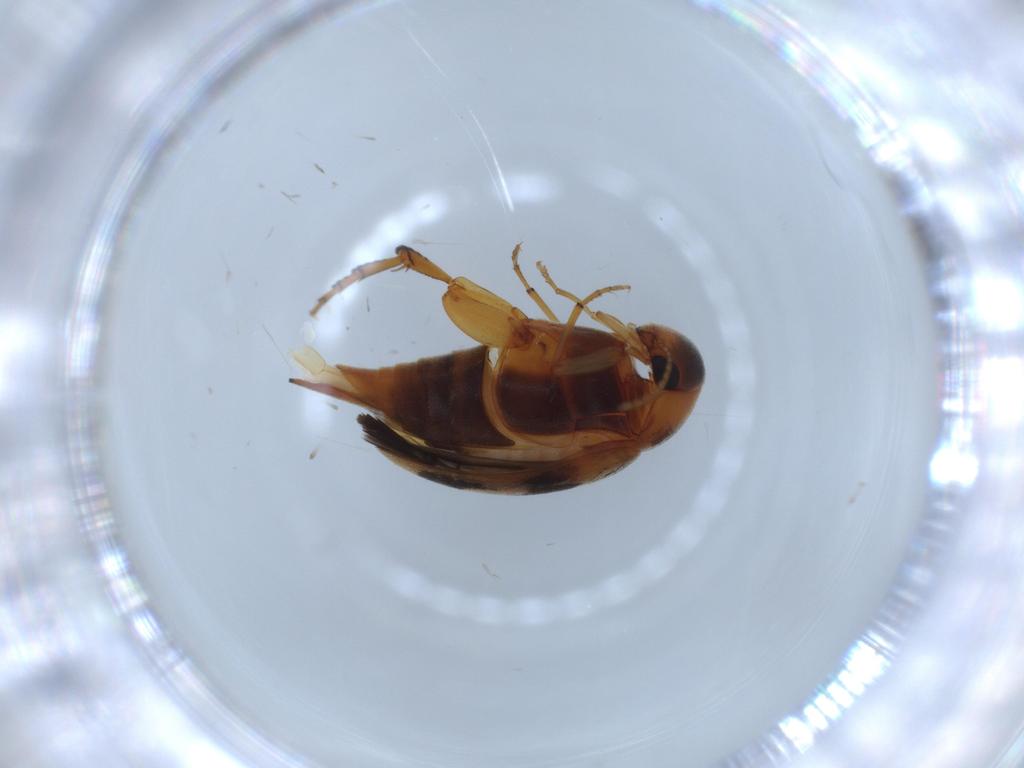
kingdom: Animalia
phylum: Arthropoda
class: Insecta
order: Coleoptera
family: Mordellidae
